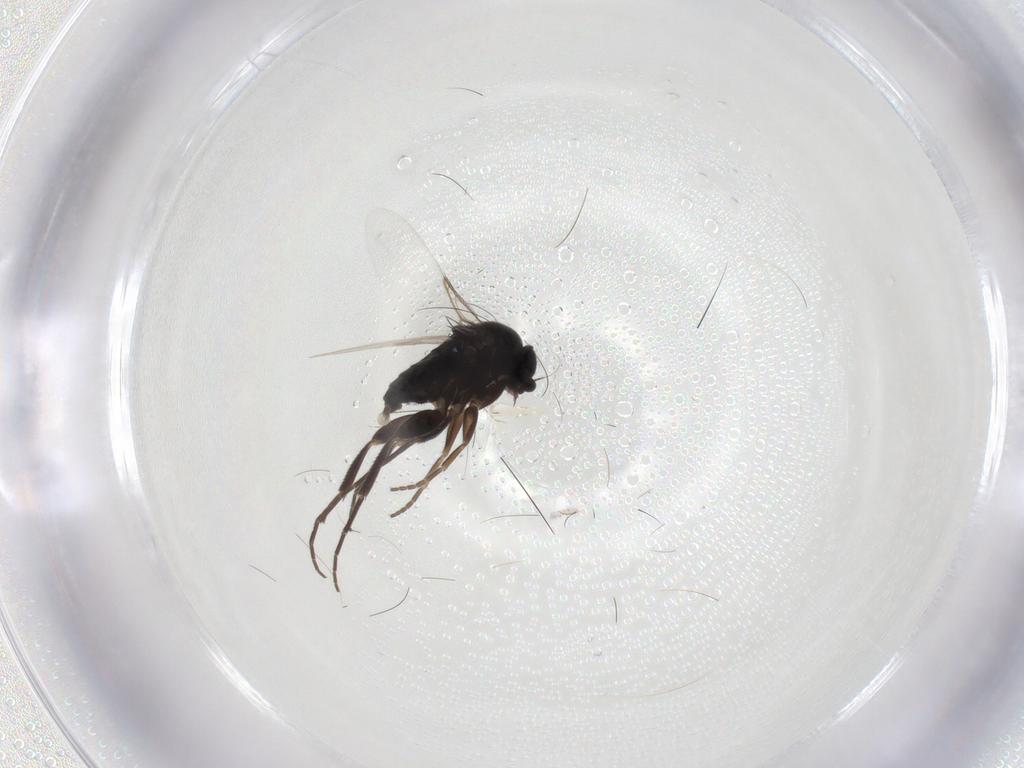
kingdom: Animalia
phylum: Arthropoda
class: Insecta
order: Diptera
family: Phoridae
